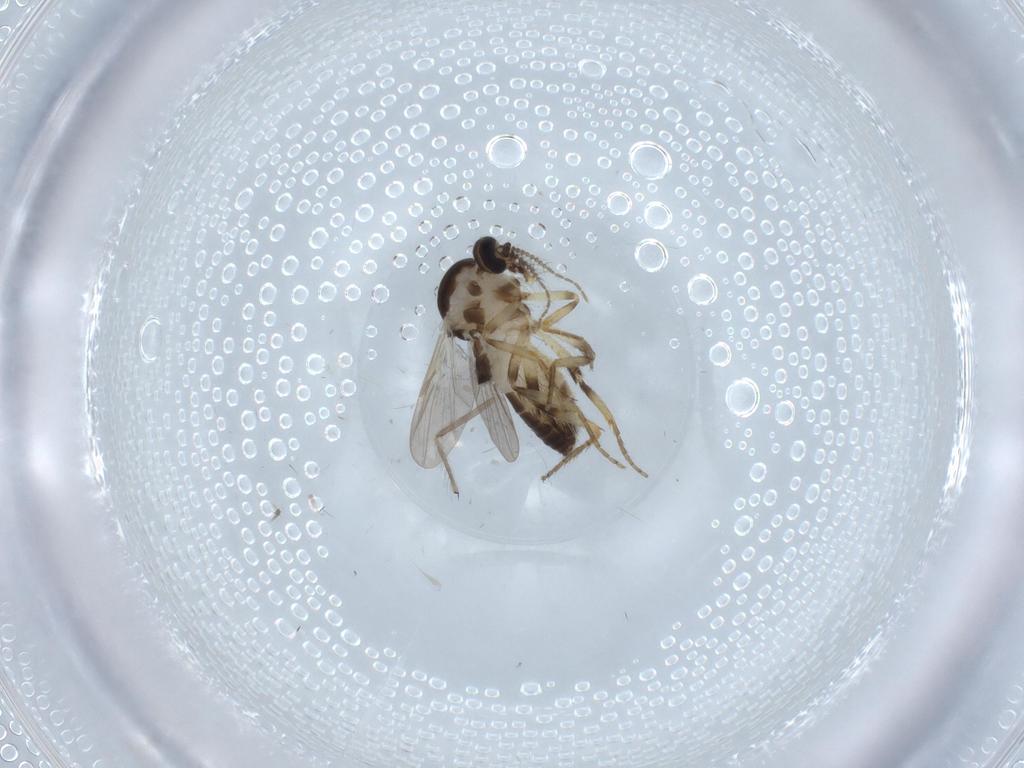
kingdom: Animalia
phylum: Arthropoda
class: Insecta
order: Diptera
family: Ceratopogonidae
